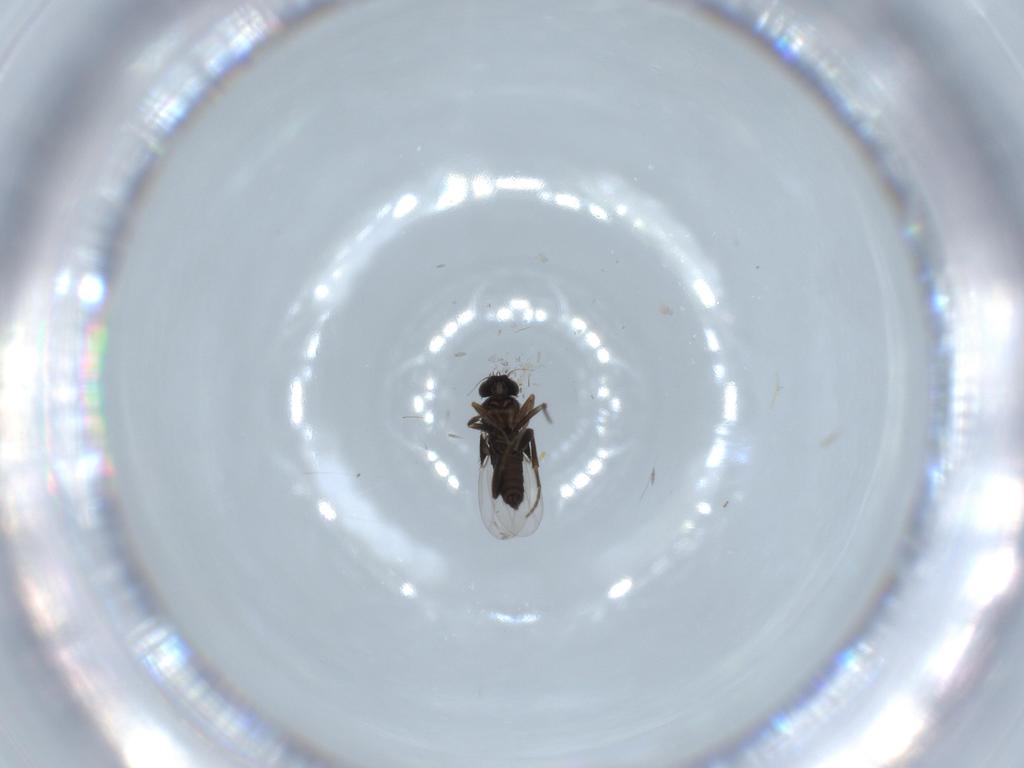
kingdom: Animalia
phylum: Arthropoda
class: Insecta
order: Diptera
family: Phoridae
